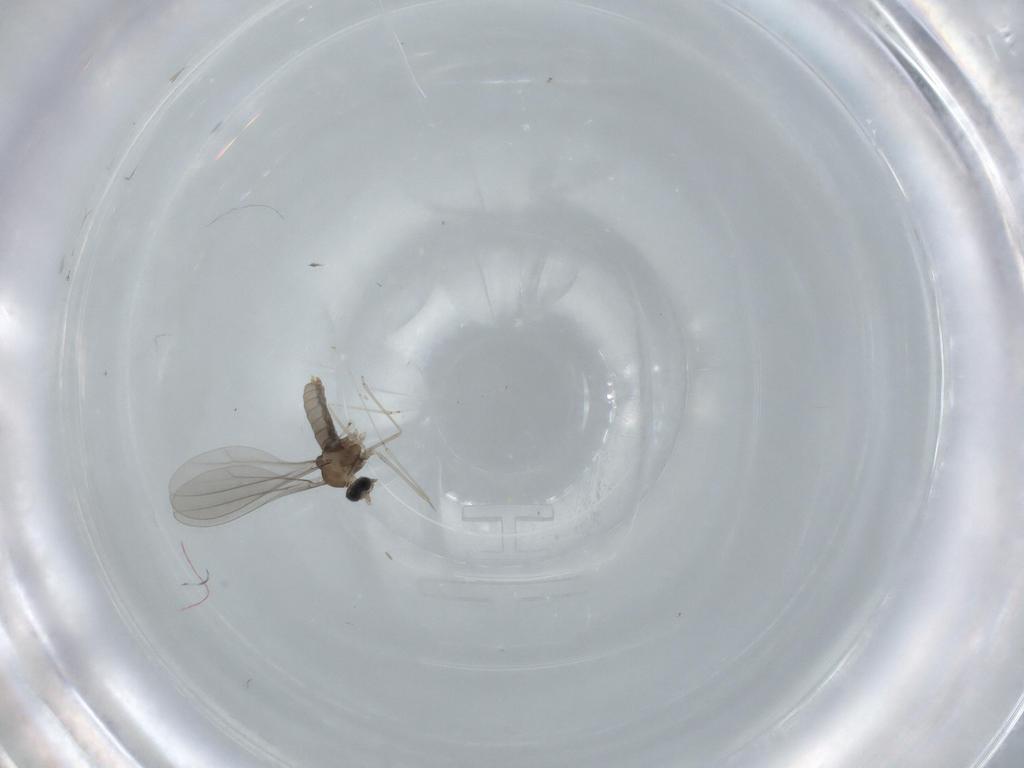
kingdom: Animalia
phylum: Arthropoda
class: Insecta
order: Diptera
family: Cecidomyiidae
